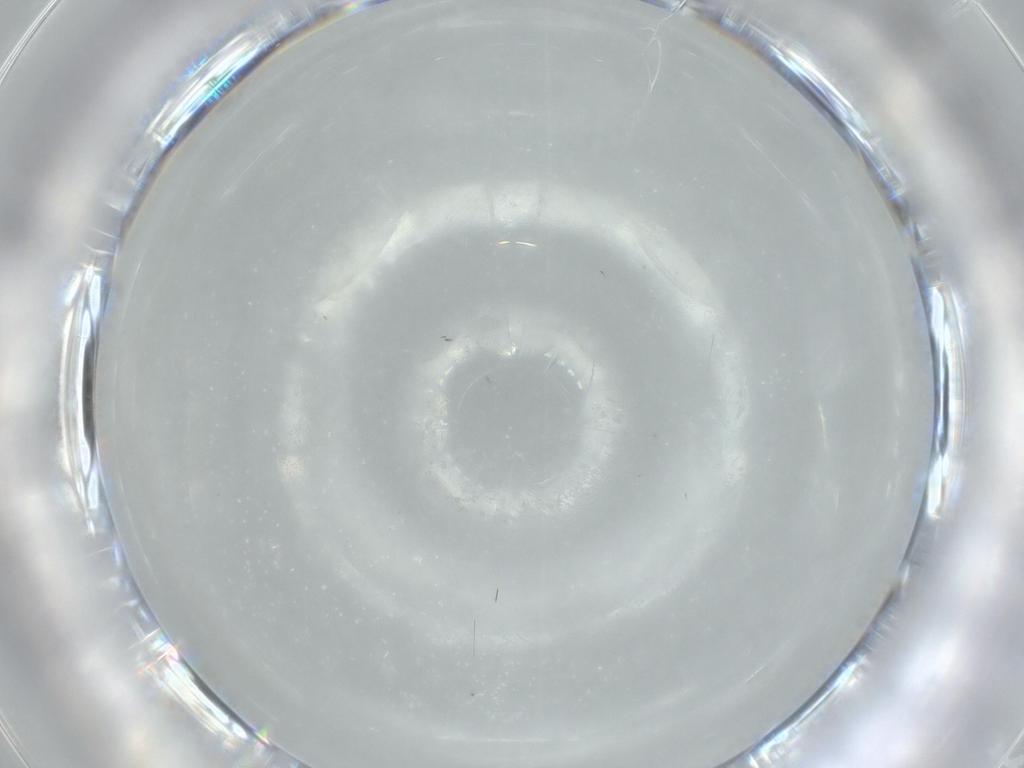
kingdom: Animalia
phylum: Arthropoda
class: Insecta
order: Diptera
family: Cecidomyiidae
